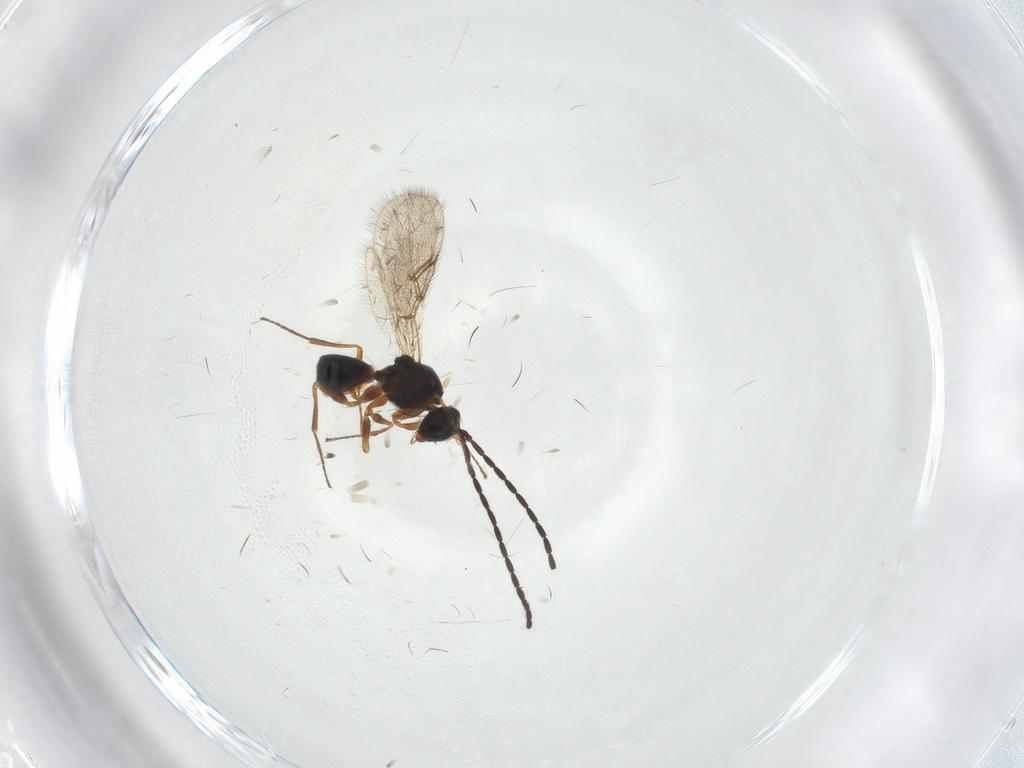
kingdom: Animalia
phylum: Arthropoda
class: Insecta
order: Hymenoptera
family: Figitidae
